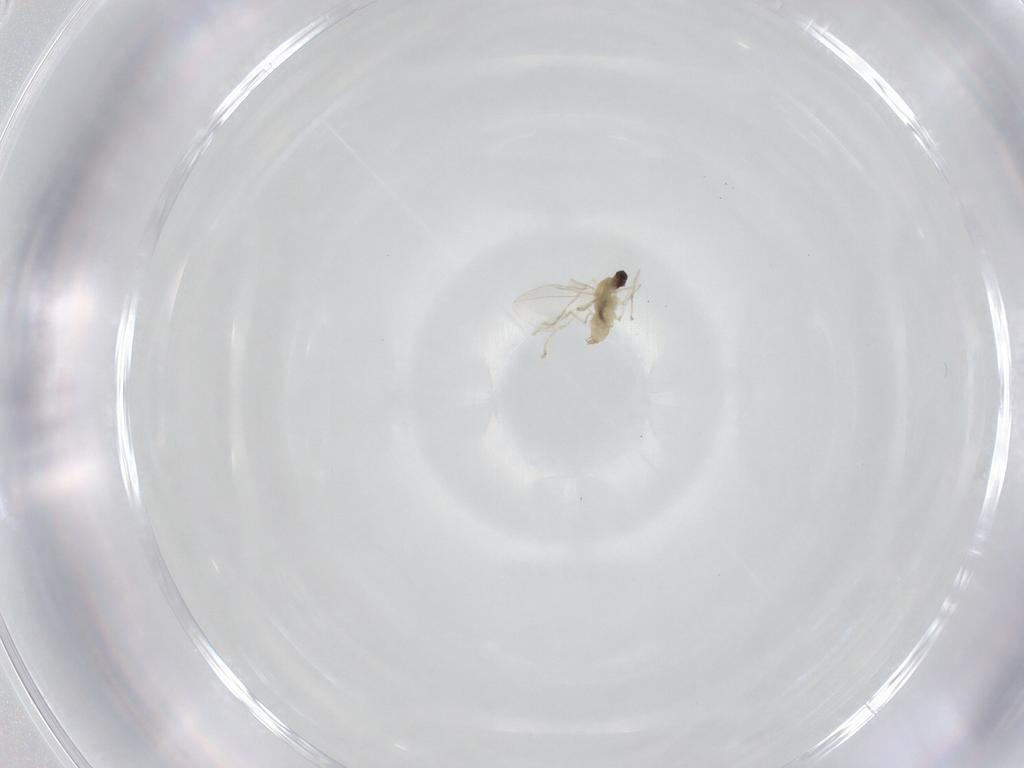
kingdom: Animalia
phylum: Arthropoda
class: Insecta
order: Diptera
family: Cecidomyiidae
